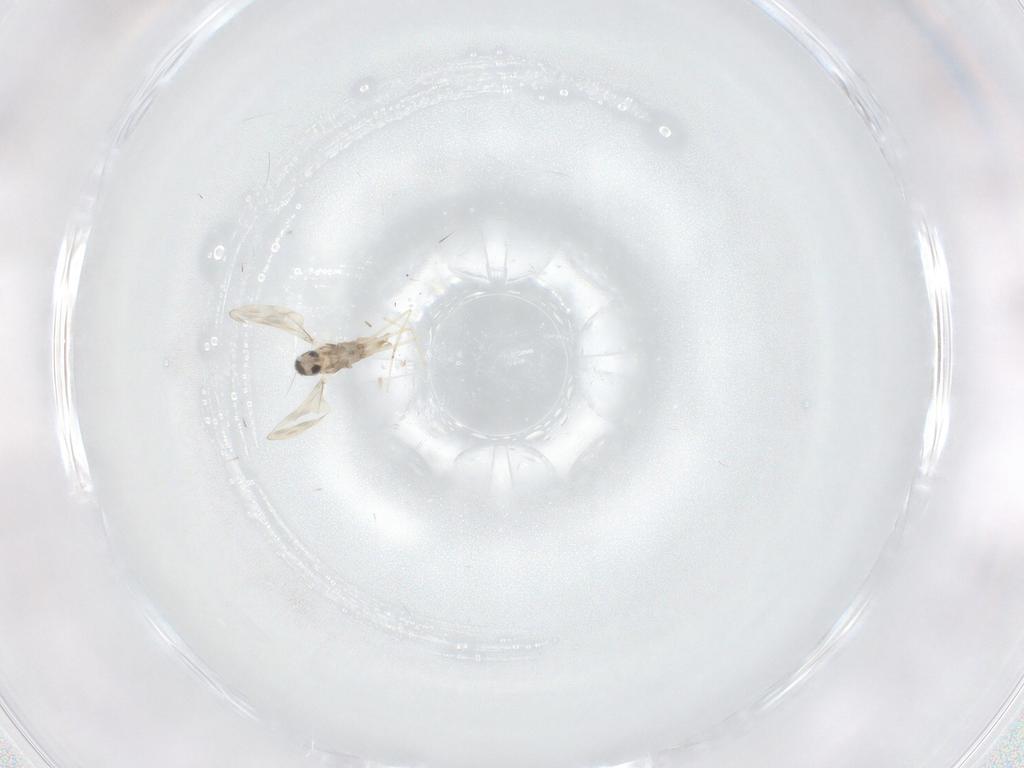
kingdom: Animalia
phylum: Arthropoda
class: Insecta
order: Diptera
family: Cecidomyiidae
